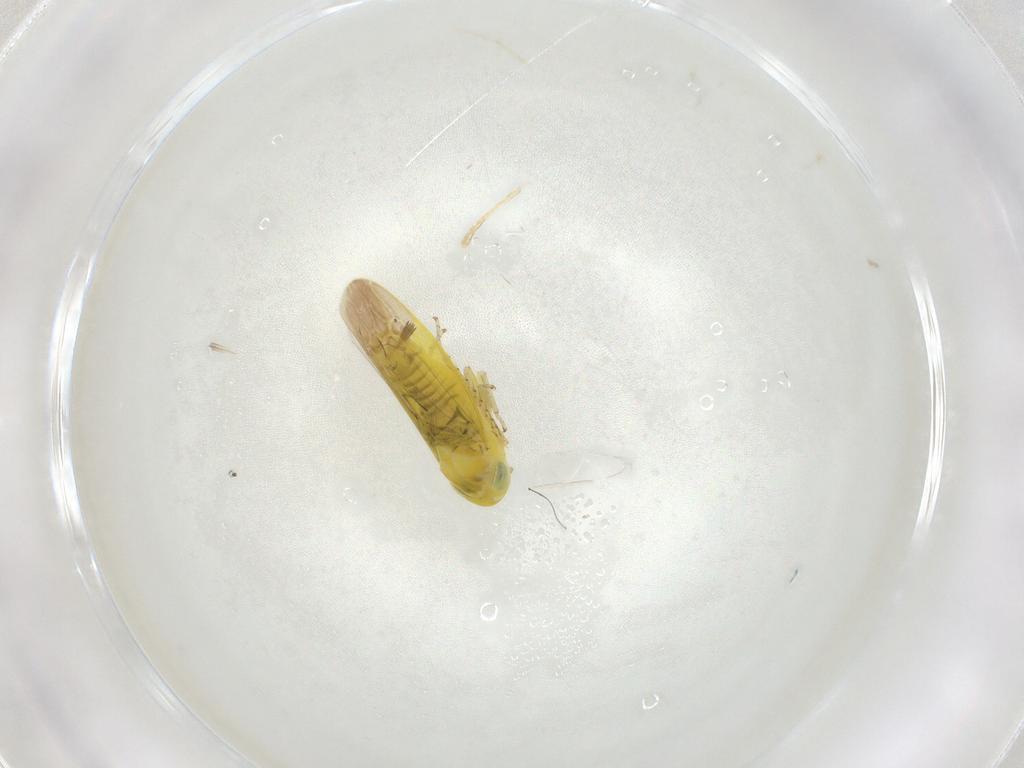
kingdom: Animalia
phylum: Arthropoda
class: Insecta
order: Hemiptera
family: Cicadellidae
